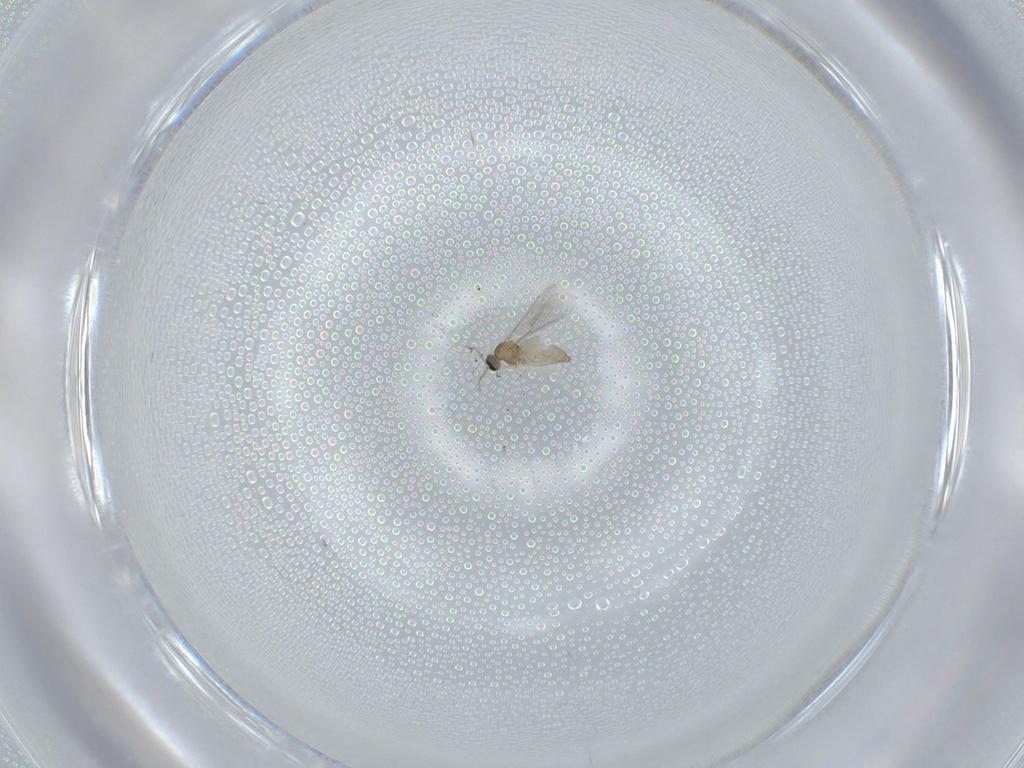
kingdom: Animalia
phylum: Arthropoda
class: Insecta
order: Diptera
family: Cecidomyiidae
